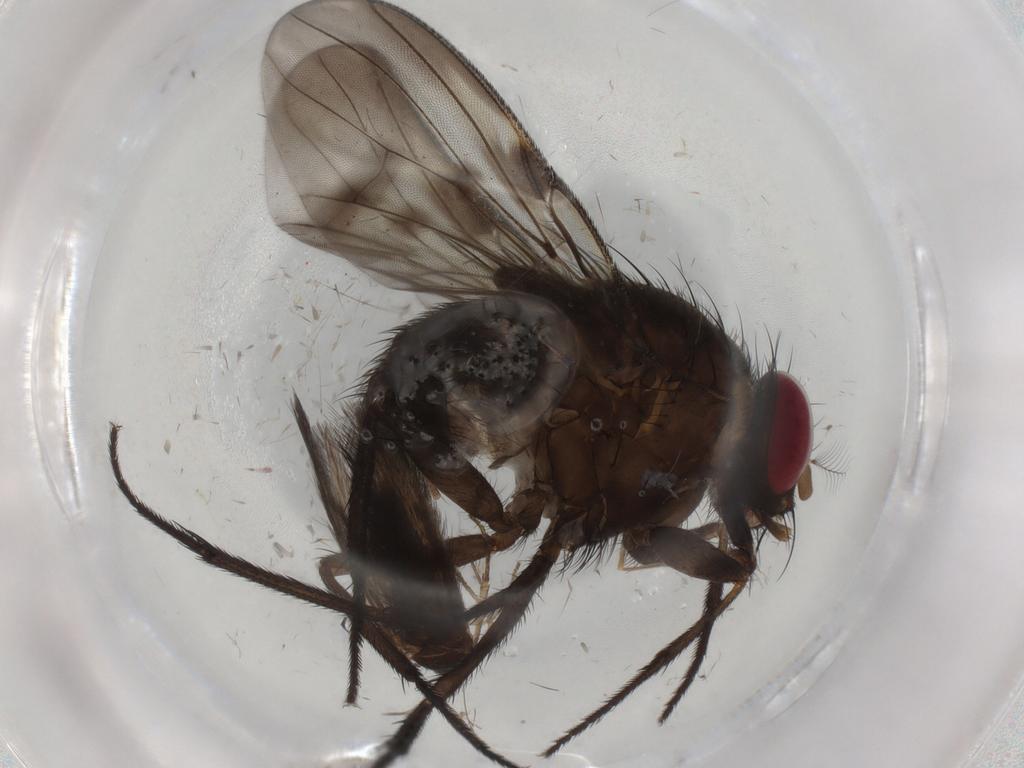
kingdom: Animalia
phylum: Arthropoda
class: Insecta
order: Diptera
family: Muscidae
